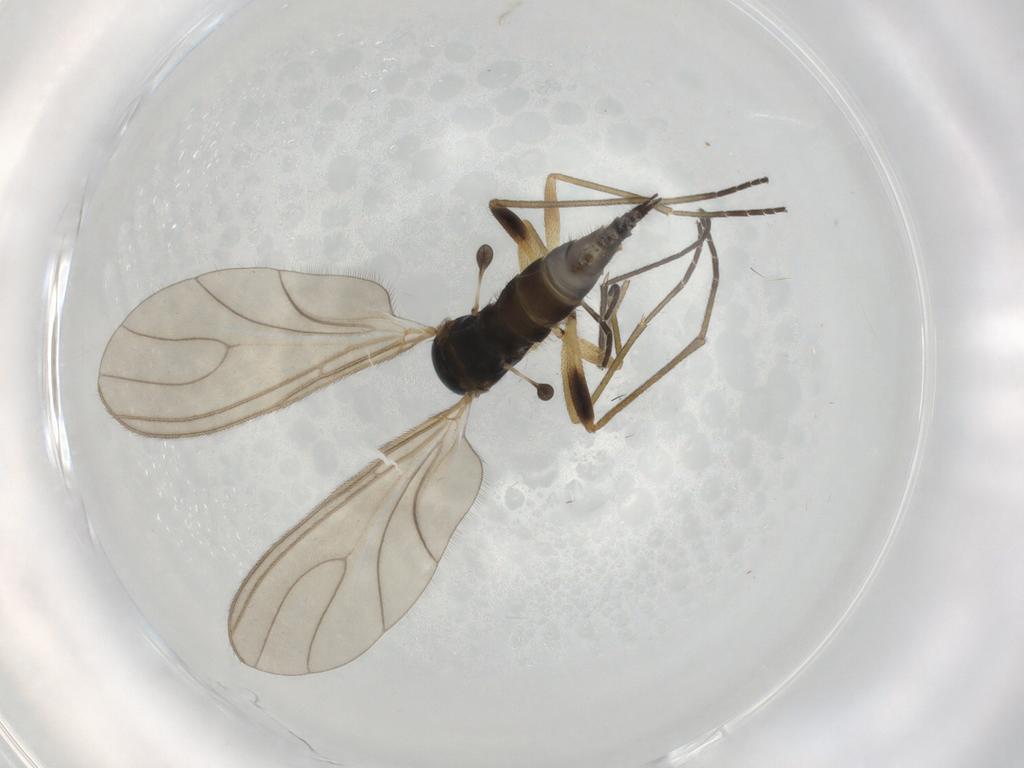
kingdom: Animalia
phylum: Arthropoda
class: Insecta
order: Diptera
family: Sciaridae
